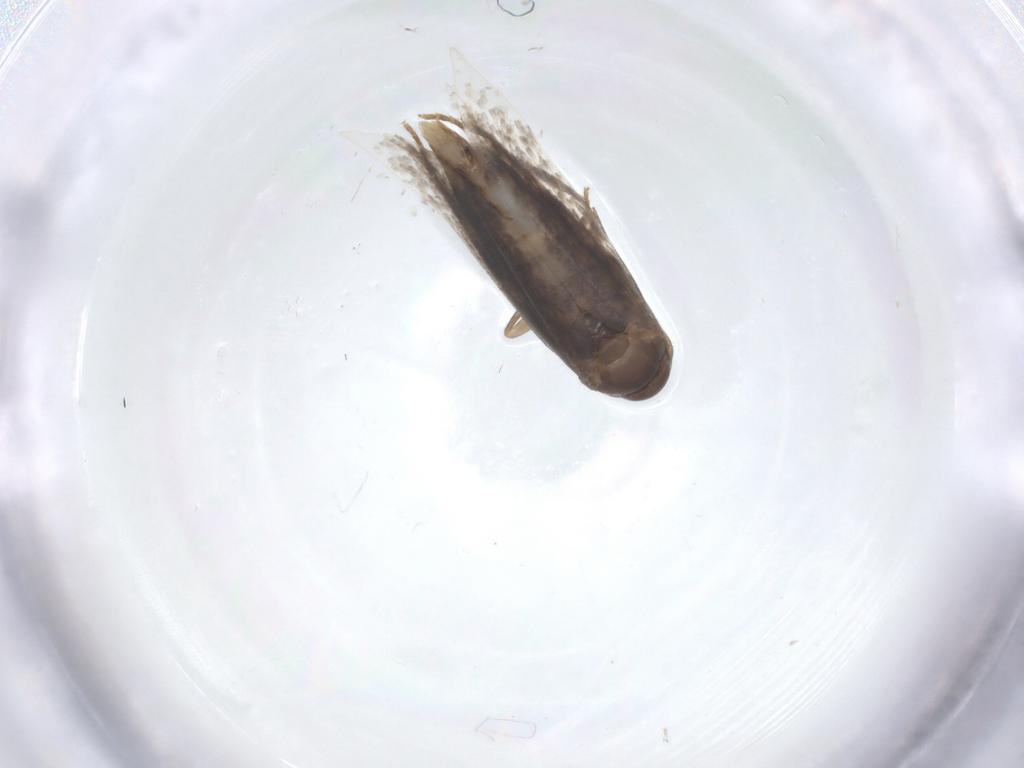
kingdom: Animalia
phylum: Arthropoda
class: Insecta
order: Lepidoptera
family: Elachistidae
